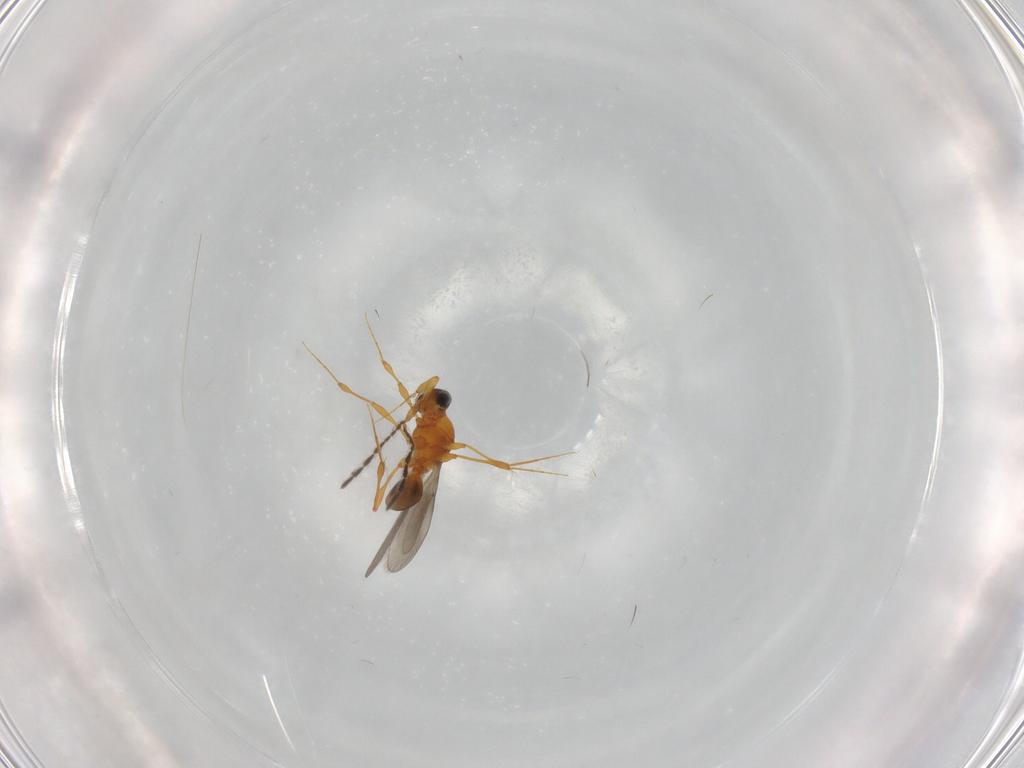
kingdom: Animalia
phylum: Arthropoda
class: Insecta
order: Hymenoptera
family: Platygastridae
